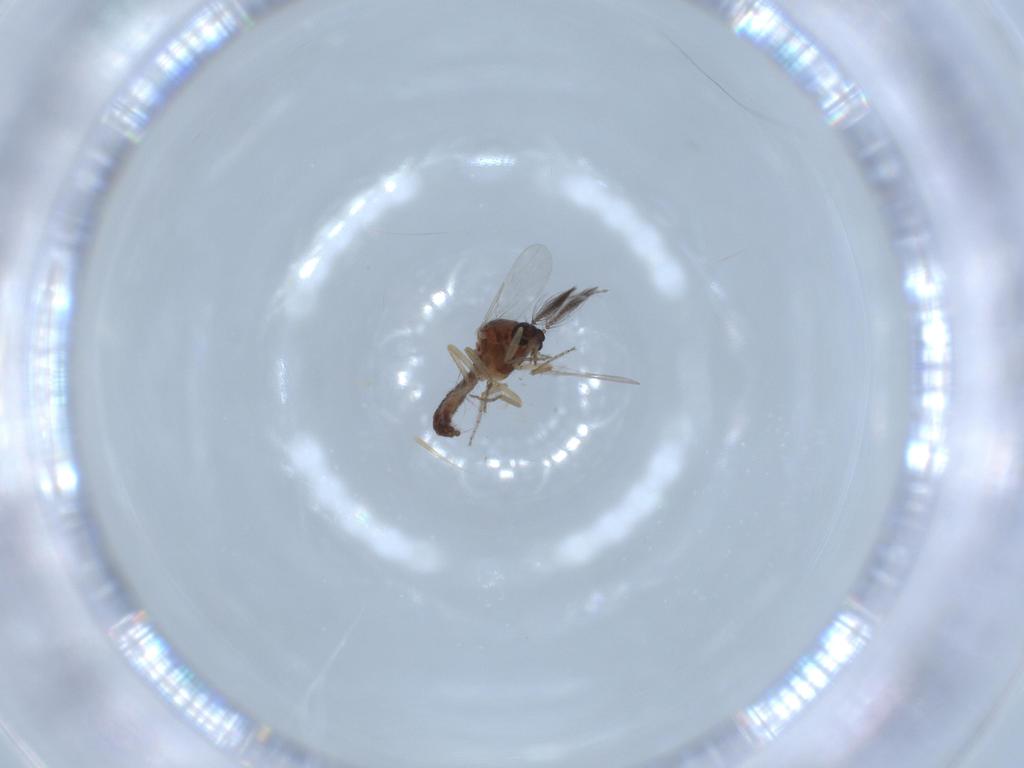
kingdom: Animalia
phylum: Arthropoda
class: Insecta
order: Diptera
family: Ceratopogonidae
